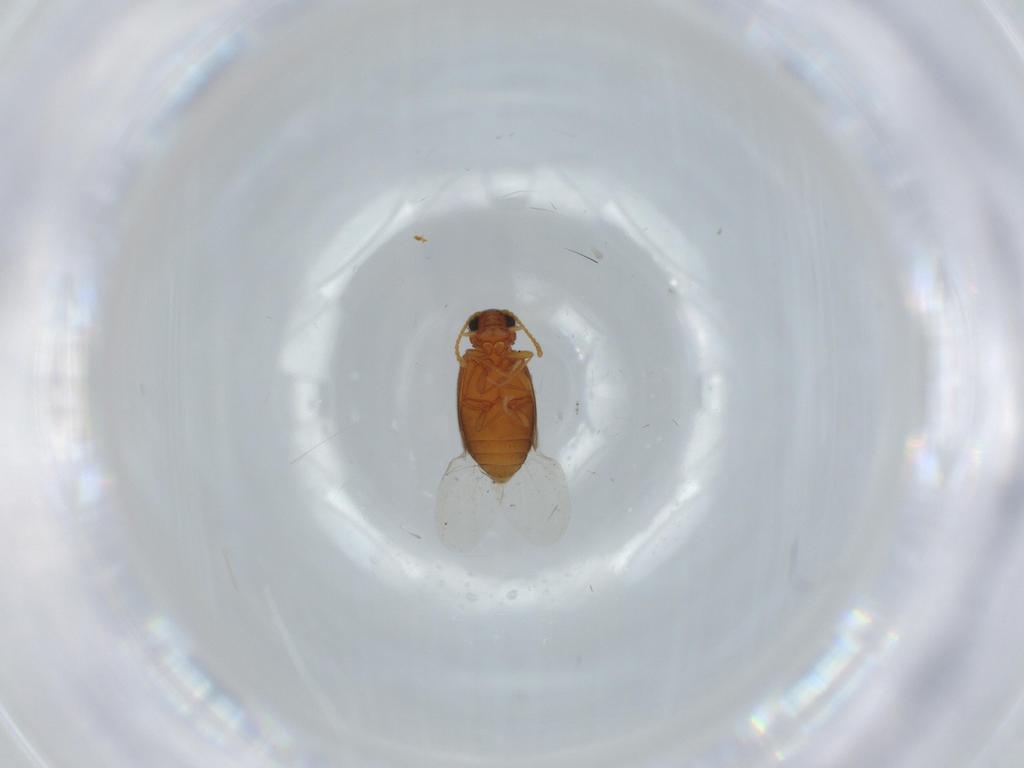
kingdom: Animalia
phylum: Arthropoda
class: Insecta
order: Coleoptera
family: Aderidae
